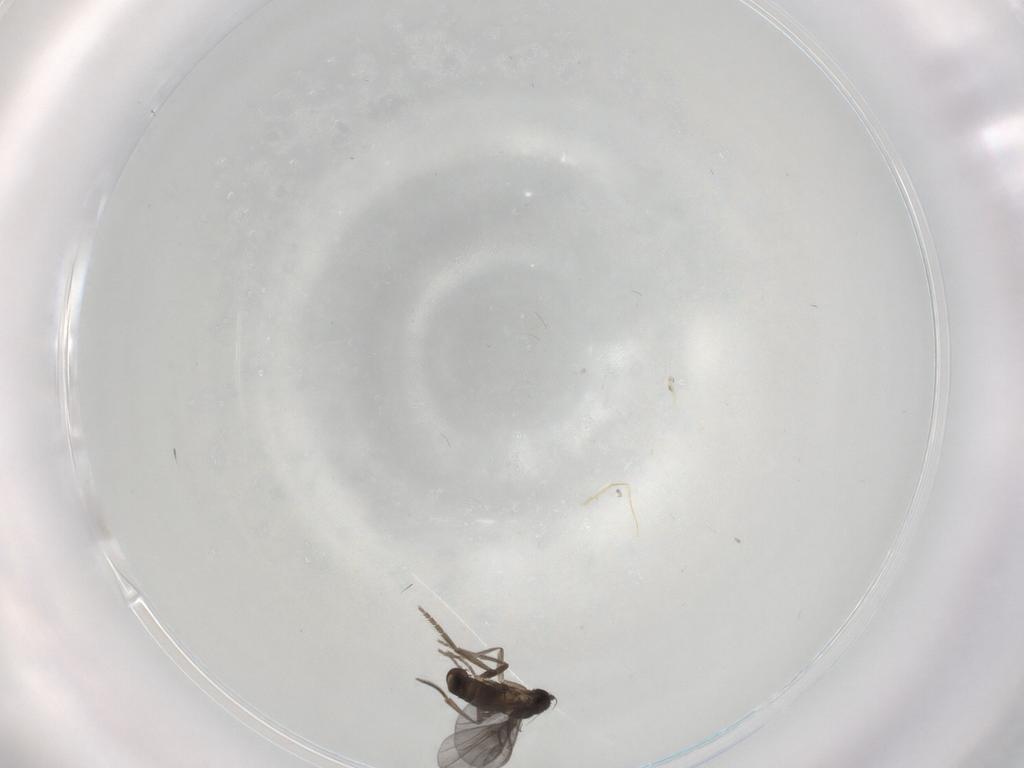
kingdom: Animalia
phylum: Arthropoda
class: Insecta
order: Diptera
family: Phoridae
